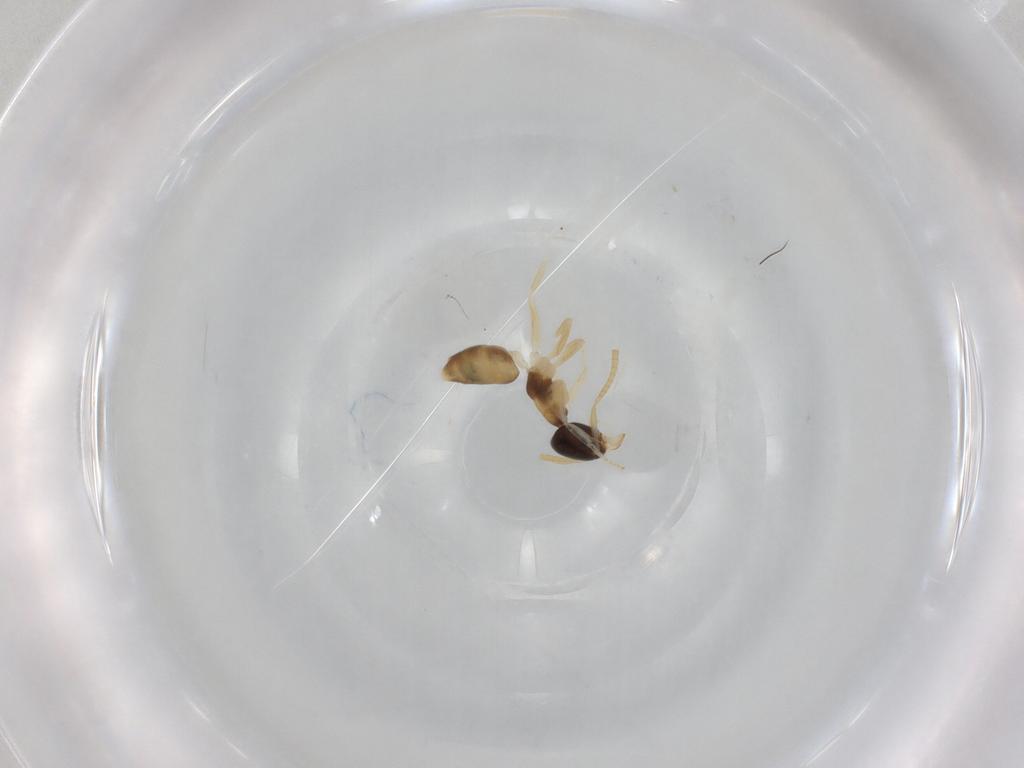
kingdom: Animalia
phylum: Arthropoda
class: Insecta
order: Hymenoptera
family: Formicidae
